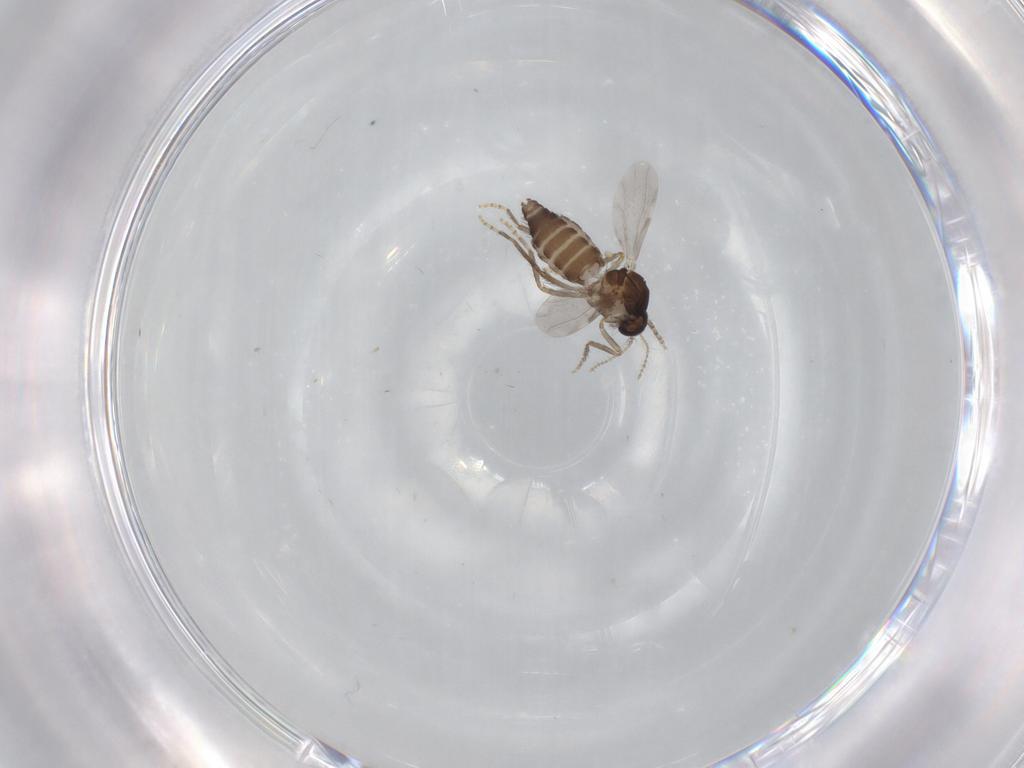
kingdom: Animalia
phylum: Arthropoda
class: Insecta
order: Diptera
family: Ceratopogonidae
